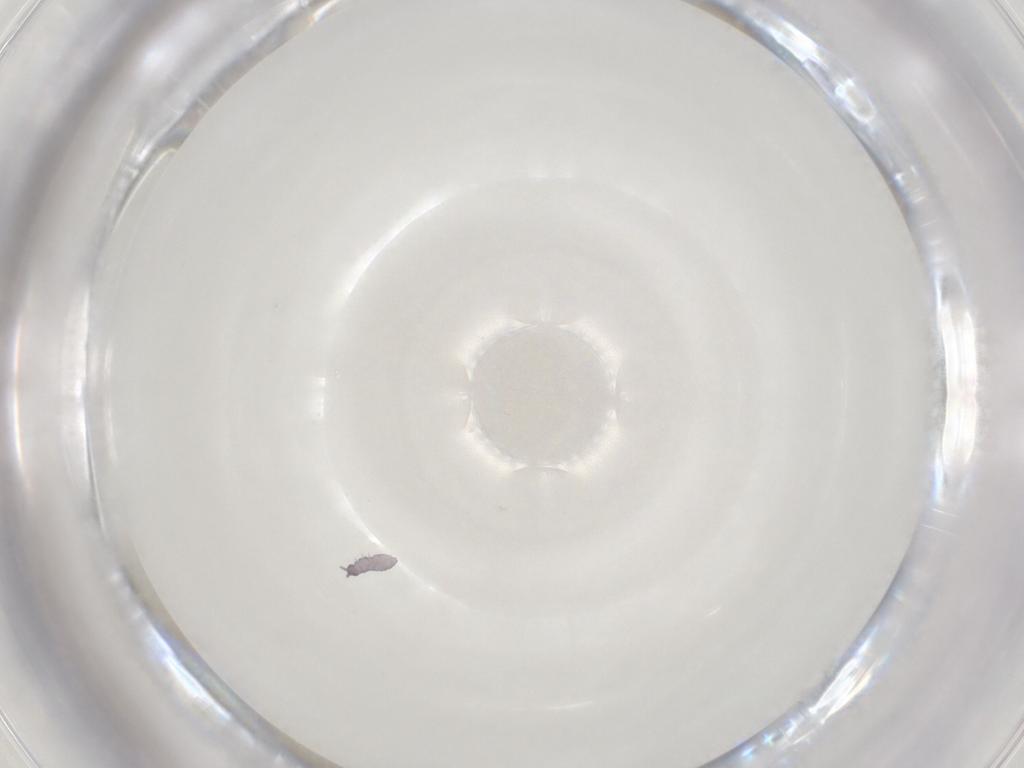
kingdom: Animalia
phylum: Arthropoda
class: Collembola
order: Poduromorpha
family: Neanuridae
